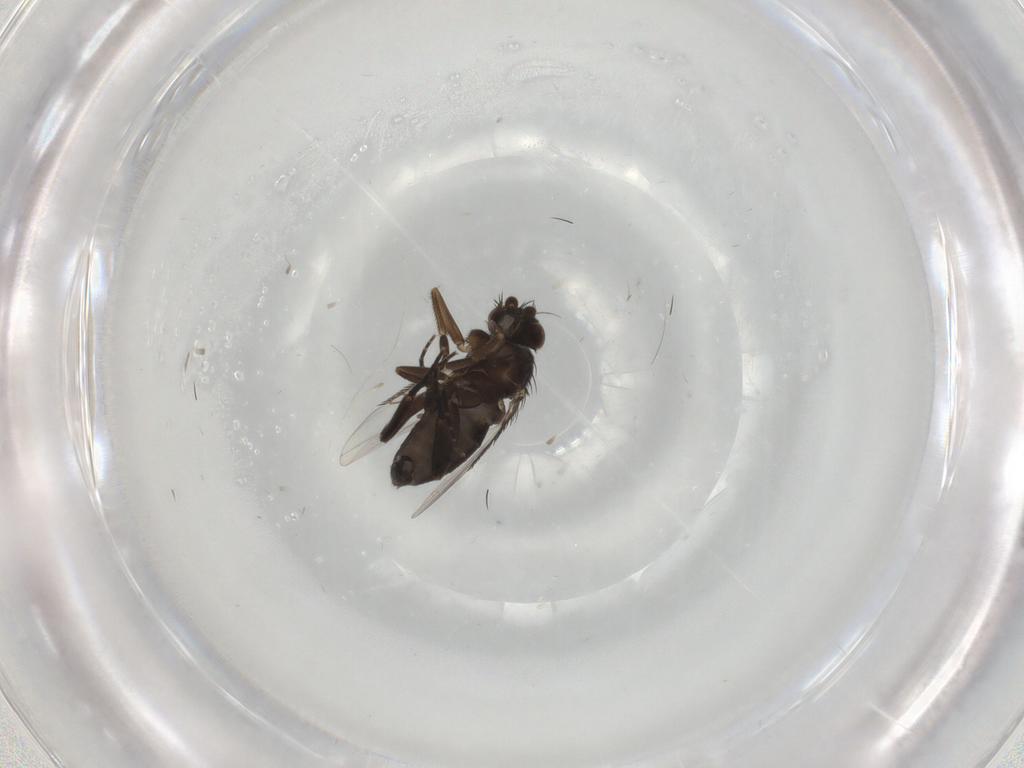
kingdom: Animalia
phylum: Arthropoda
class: Insecta
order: Diptera
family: Phoridae
